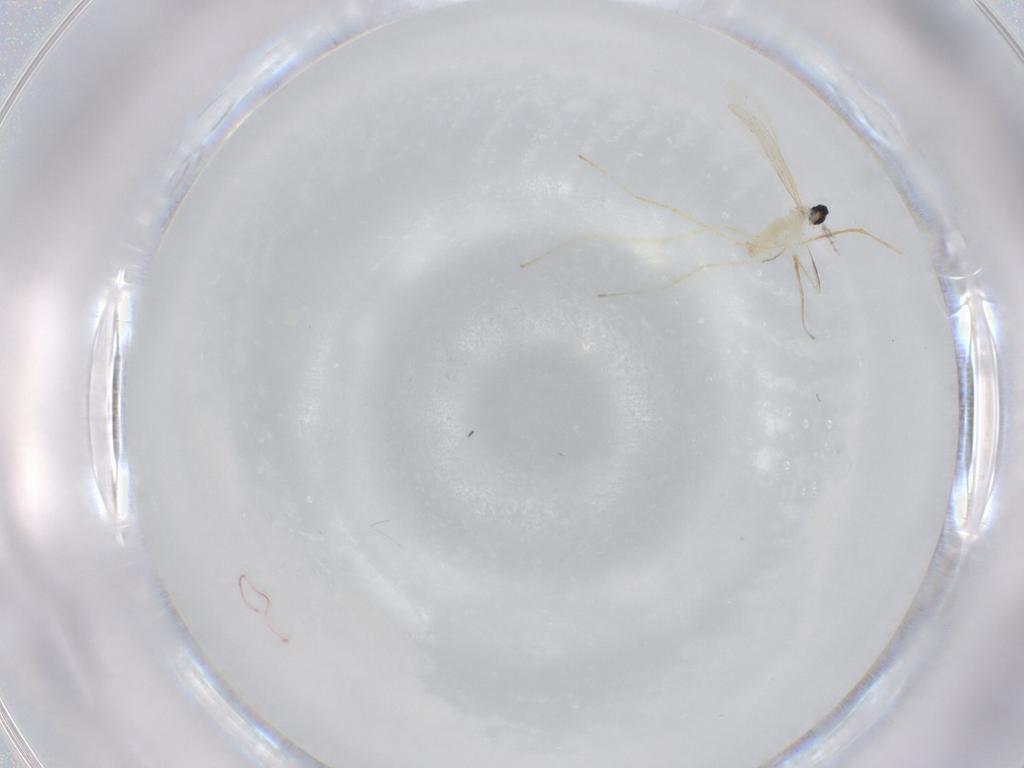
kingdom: Animalia
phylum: Arthropoda
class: Insecta
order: Diptera
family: Cecidomyiidae
